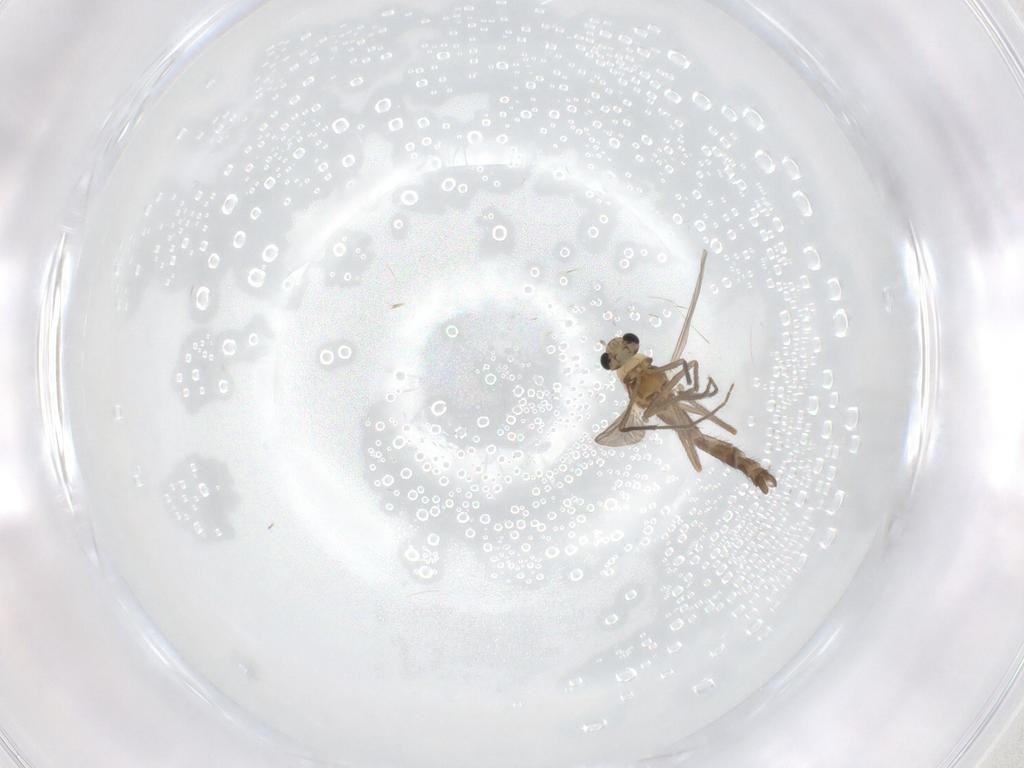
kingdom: Animalia
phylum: Arthropoda
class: Insecta
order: Diptera
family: Chironomidae
